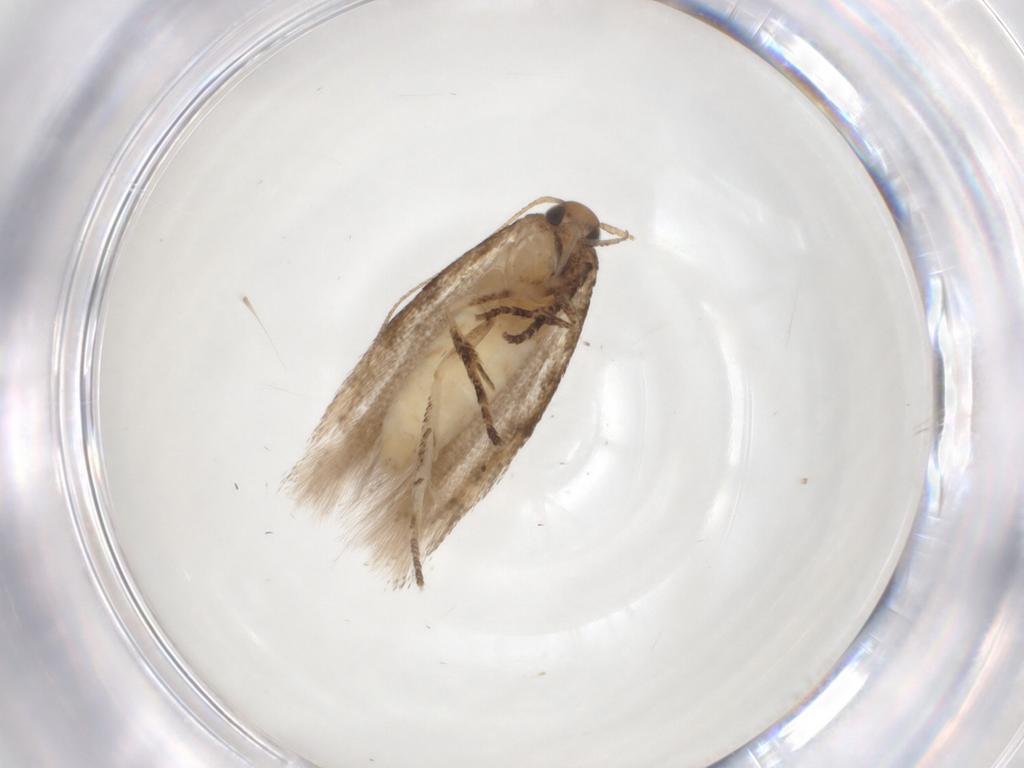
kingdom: Animalia
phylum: Arthropoda
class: Insecta
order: Lepidoptera
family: Gelechiidae
